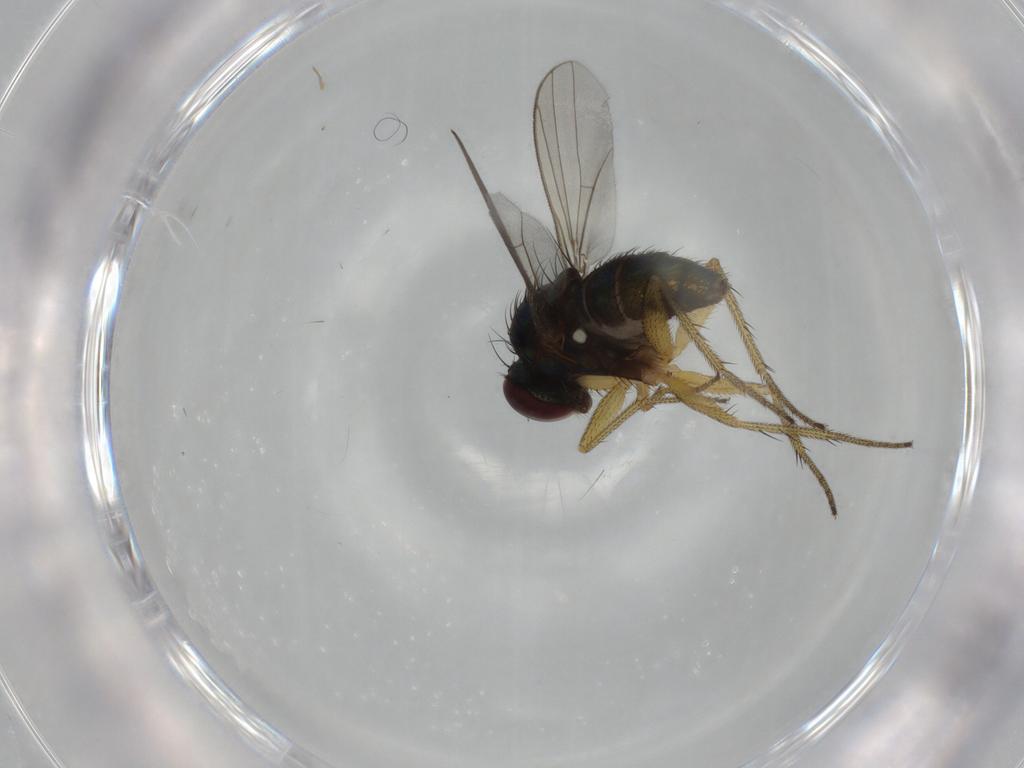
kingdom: Animalia
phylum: Arthropoda
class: Insecta
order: Diptera
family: Dolichopodidae
